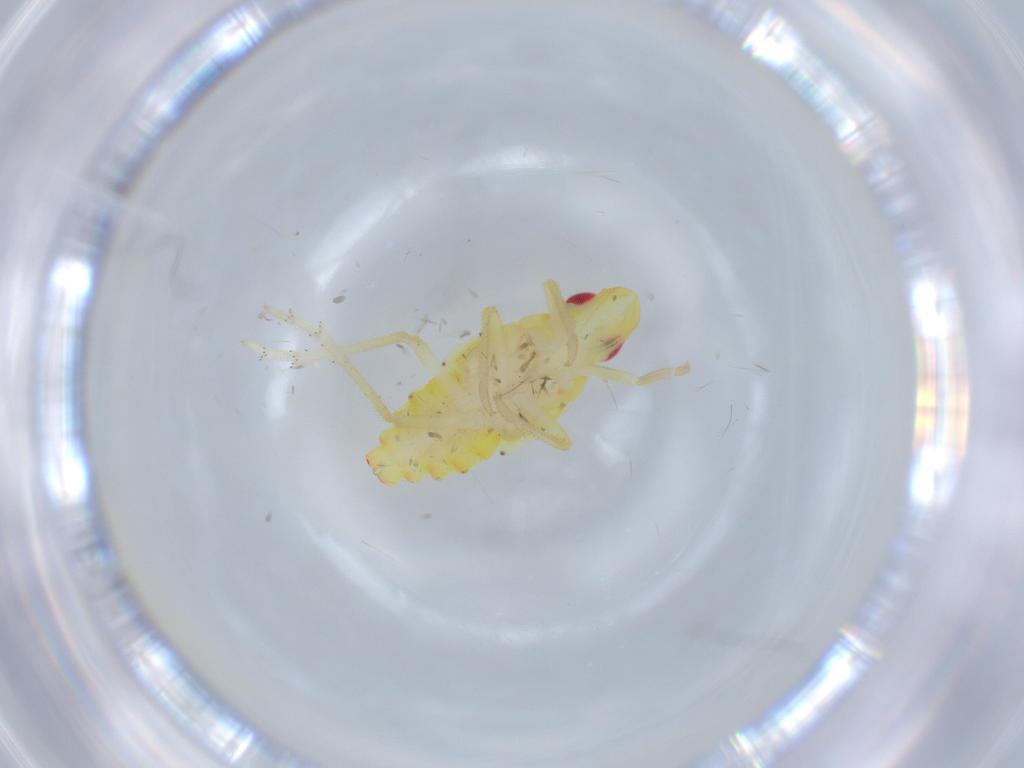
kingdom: Animalia
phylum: Arthropoda
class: Insecta
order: Hemiptera
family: Tropiduchidae
